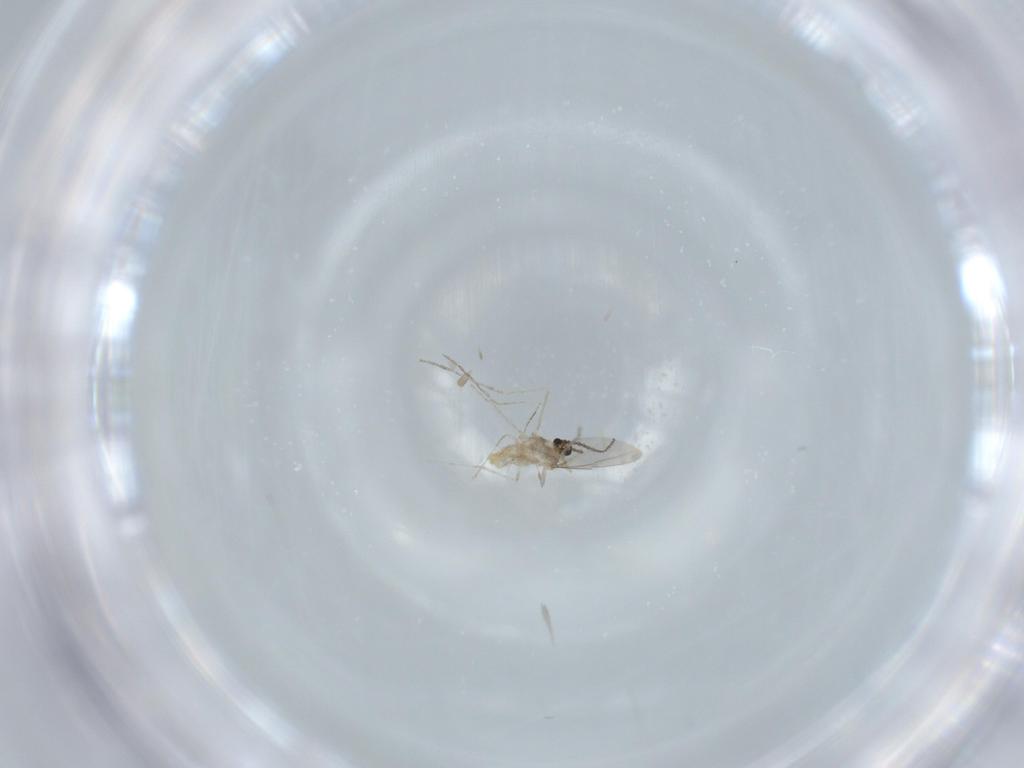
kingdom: Animalia
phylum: Arthropoda
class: Insecta
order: Diptera
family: Cecidomyiidae
